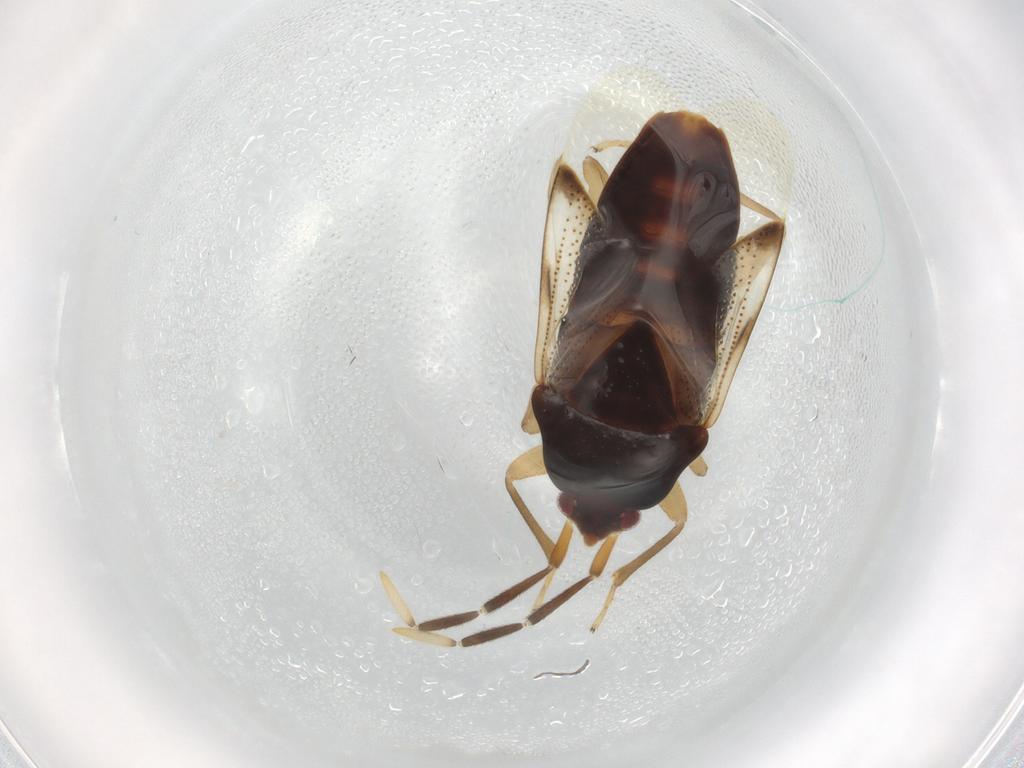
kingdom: Animalia
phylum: Arthropoda
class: Insecta
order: Hemiptera
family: Rhyparochromidae
